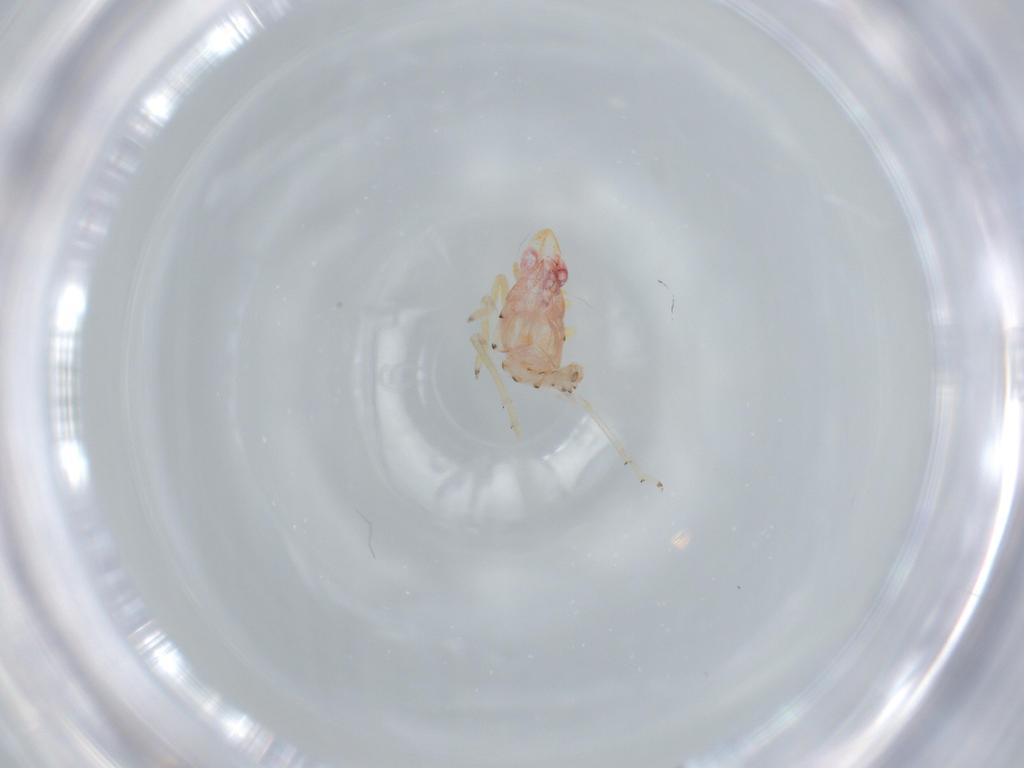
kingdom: Animalia
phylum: Arthropoda
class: Insecta
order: Hemiptera
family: Tropiduchidae
